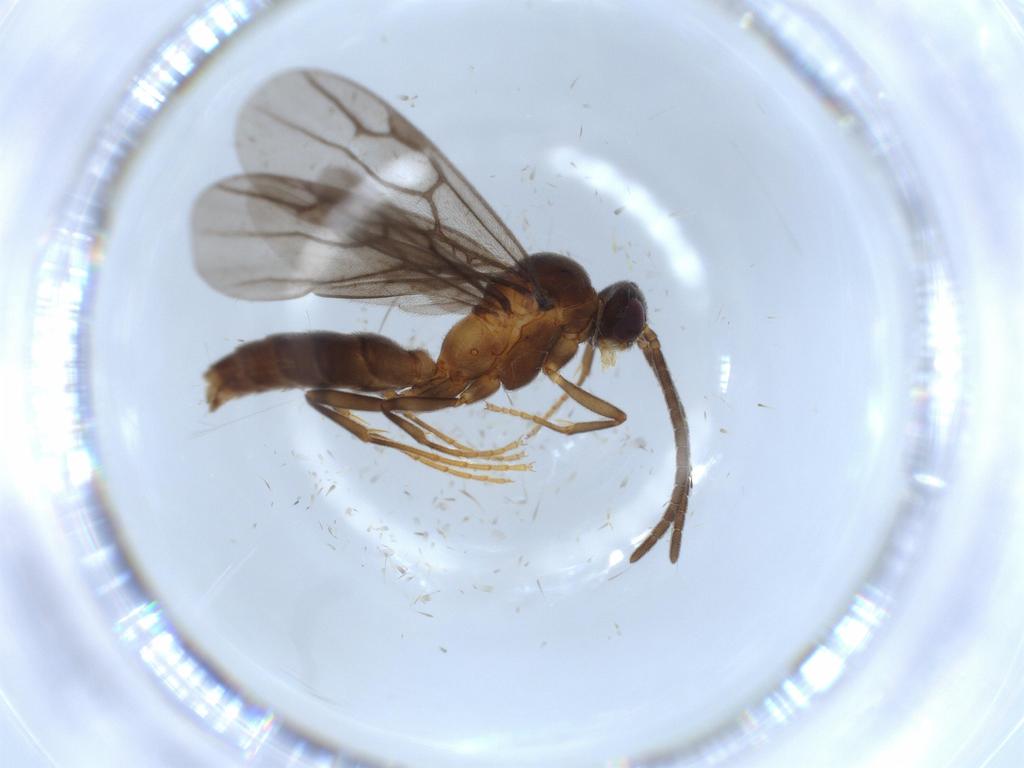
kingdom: Animalia
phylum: Arthropoda
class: Insecta
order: Hymenoptera
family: Formicidae
